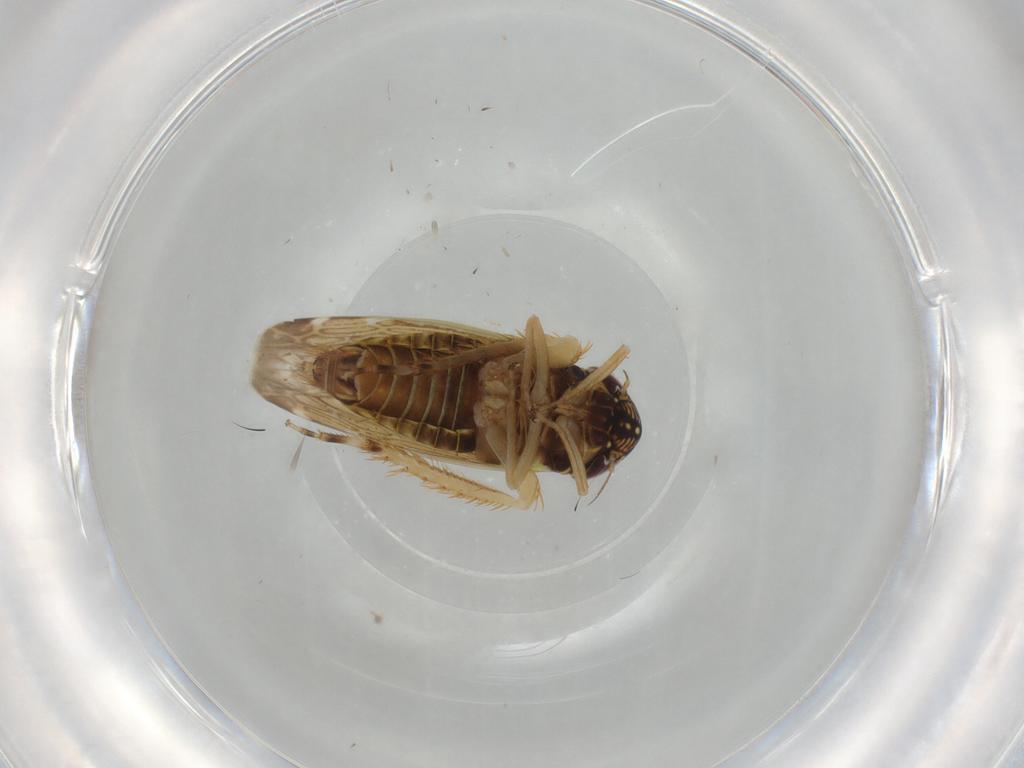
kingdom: Animalia
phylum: Arthropoda
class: Insecta
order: Hemiptera
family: Cicadellidae
